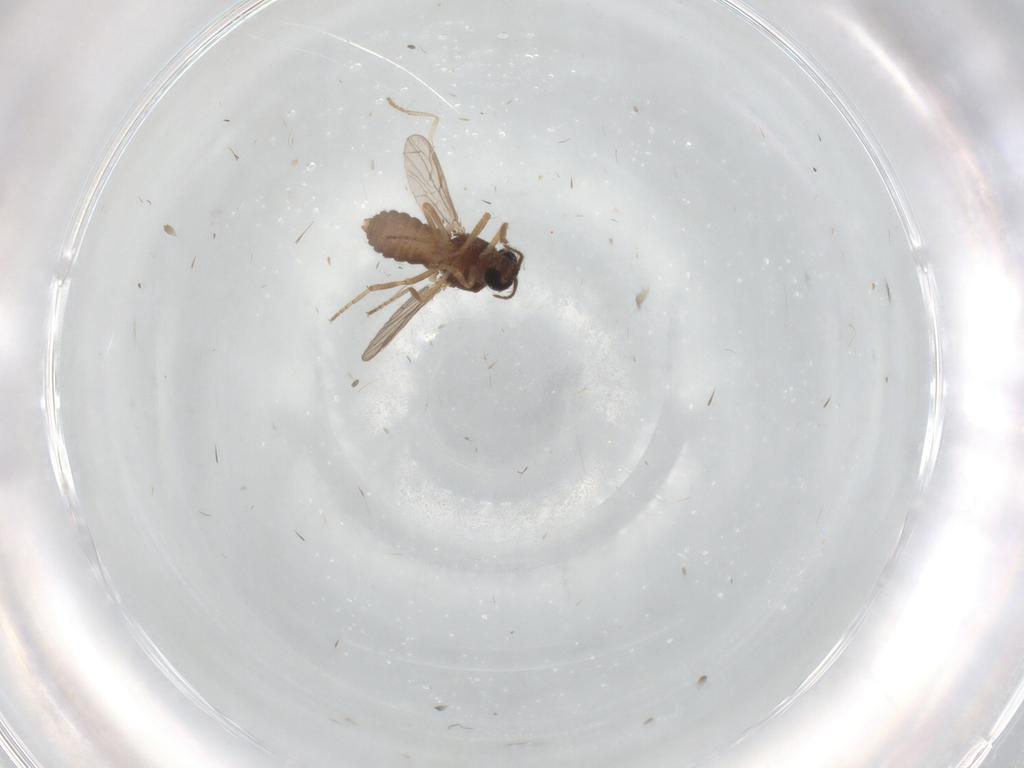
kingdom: Animalia
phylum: Arthropoda
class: Insecta
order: Diptera
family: Psychodidae
